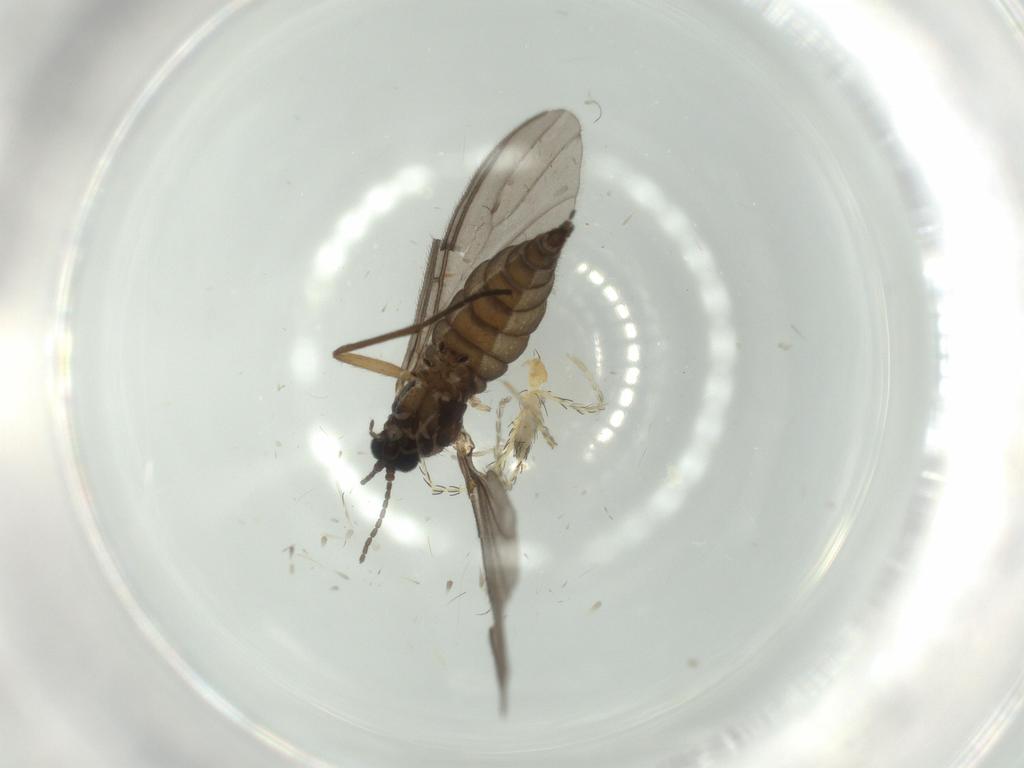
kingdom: Animalia
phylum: Arthropoda
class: Insecta
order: Diptera
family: Sciaridae
